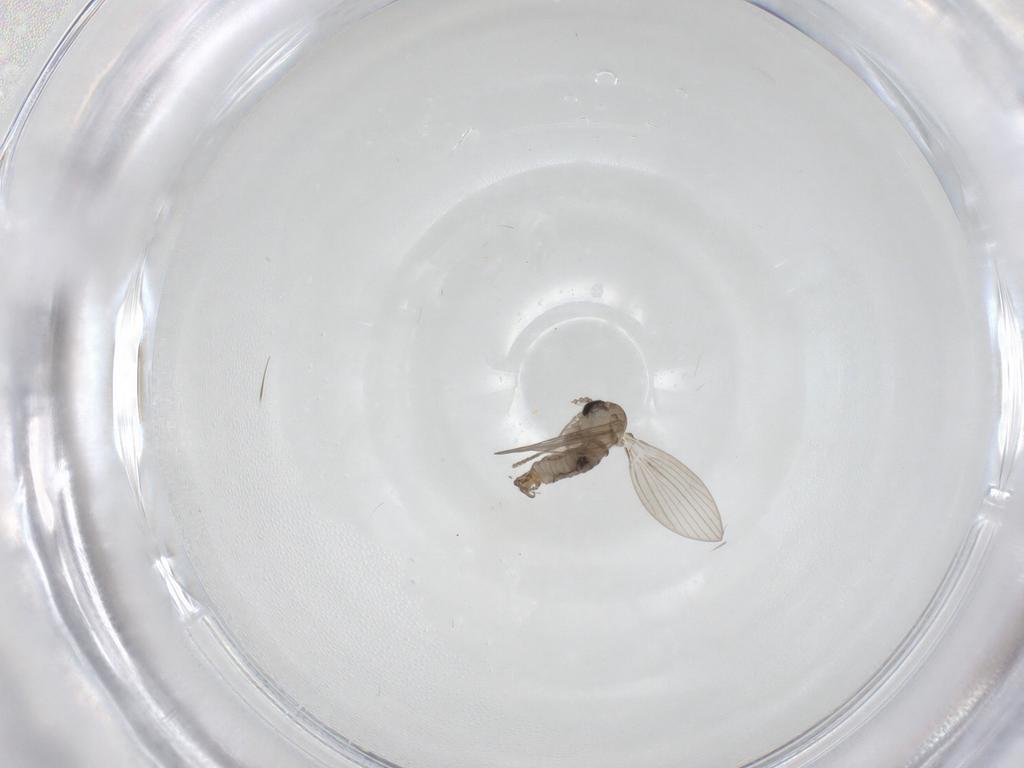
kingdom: Animalia
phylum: Arthropoda
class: Insecta
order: Diptera
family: Psychodidae
